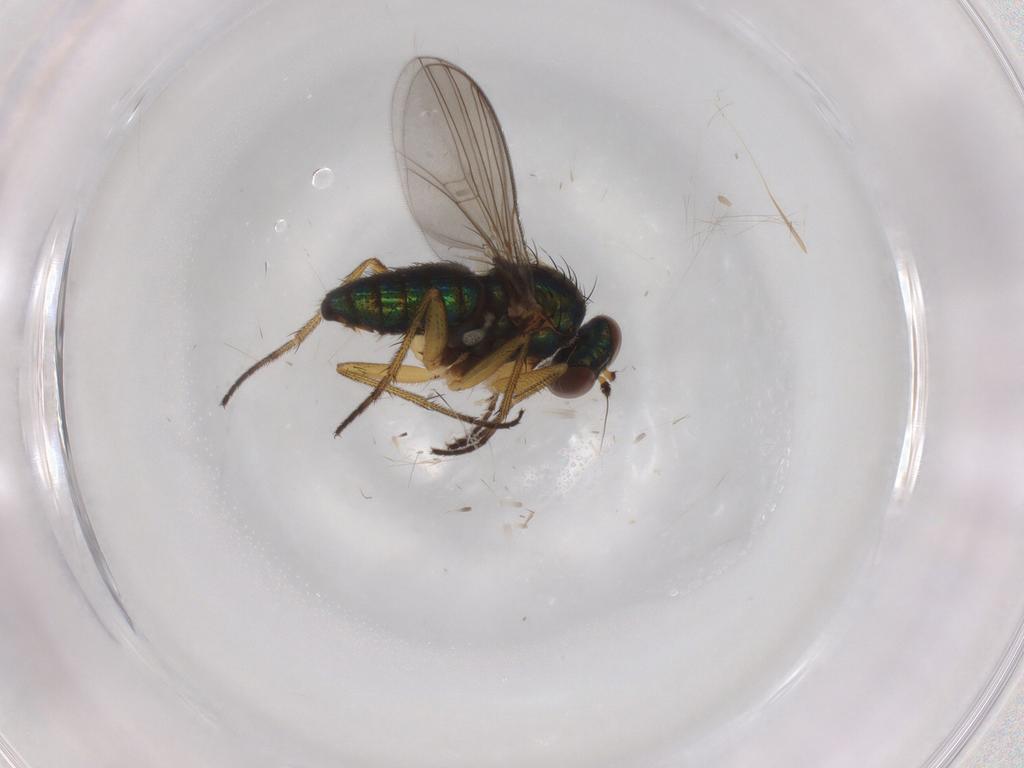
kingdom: Animalia
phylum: Arthropoda
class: Insecta
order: Diptera
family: Dolichopodidae
